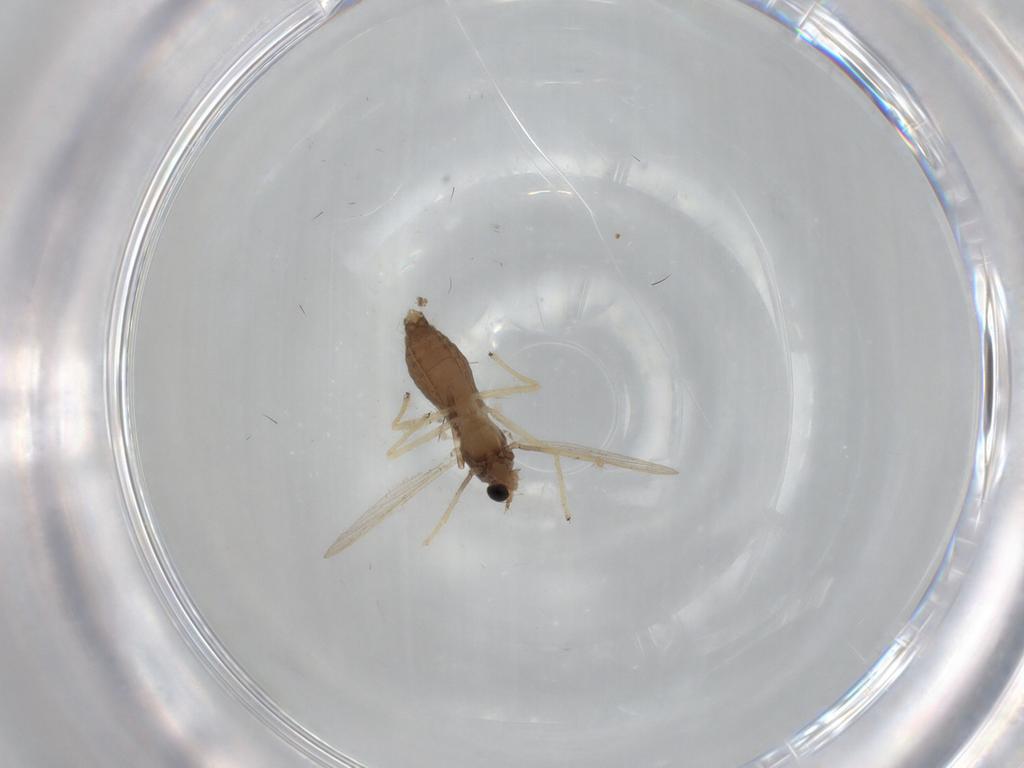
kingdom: Animalia
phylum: Arthropoda
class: Insecta
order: Diptera
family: Chironomidae
